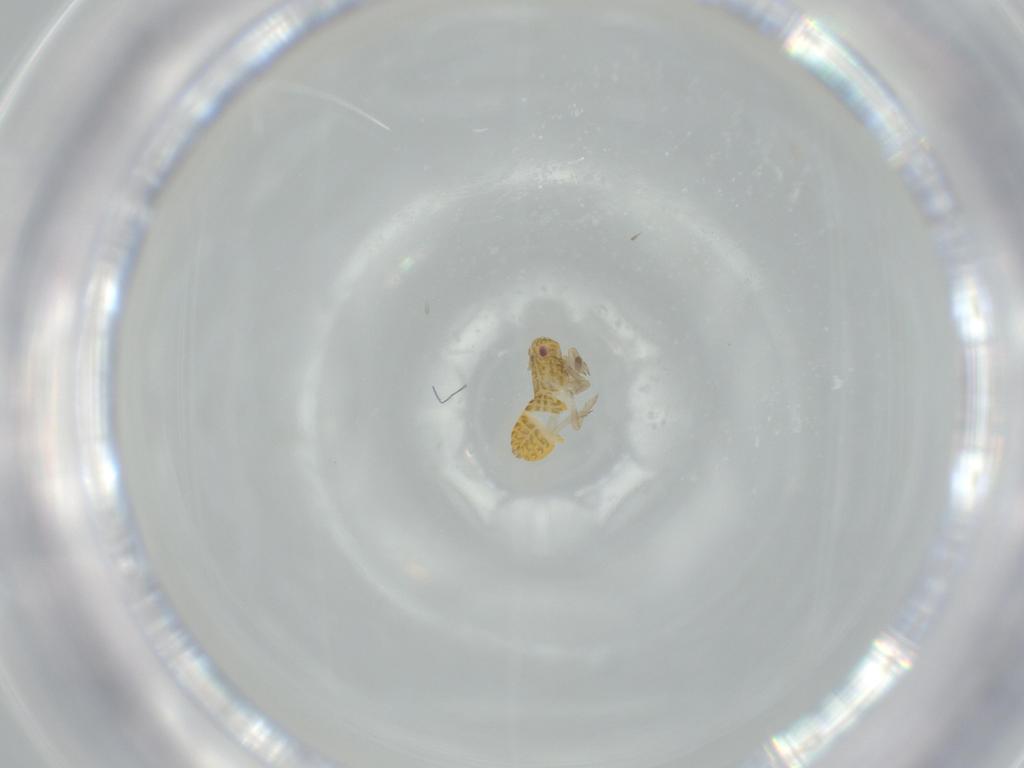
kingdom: Animalia
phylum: Arthropoda
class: Insecta
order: Hemiptera
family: Delphacidae
